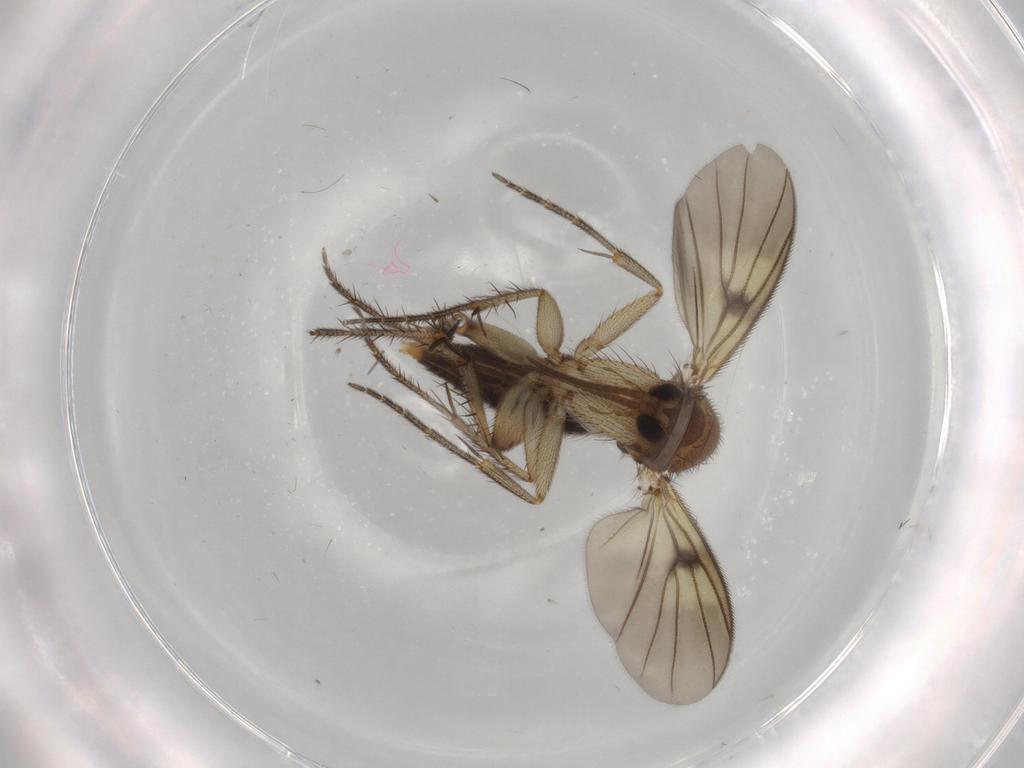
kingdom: Animalia
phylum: Arthropoda
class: Insecta
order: Diptera
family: Mycetophilidae
